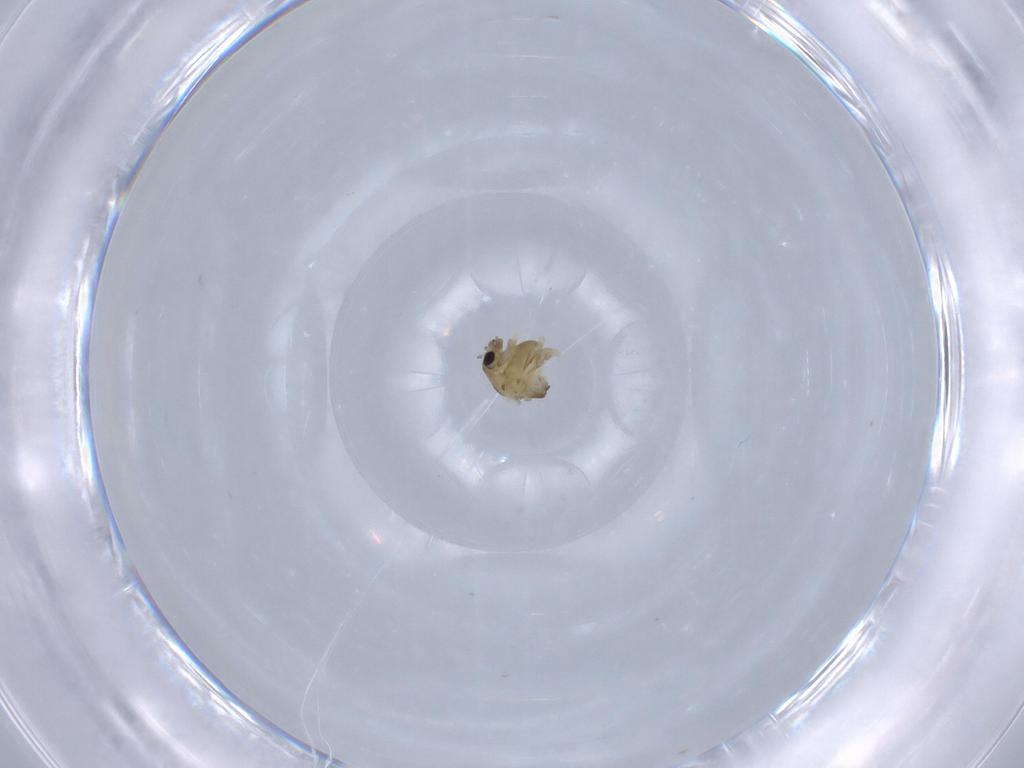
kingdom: Animalia
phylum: Arthropoda
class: Insecta
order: Diptera
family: Chironomidae
